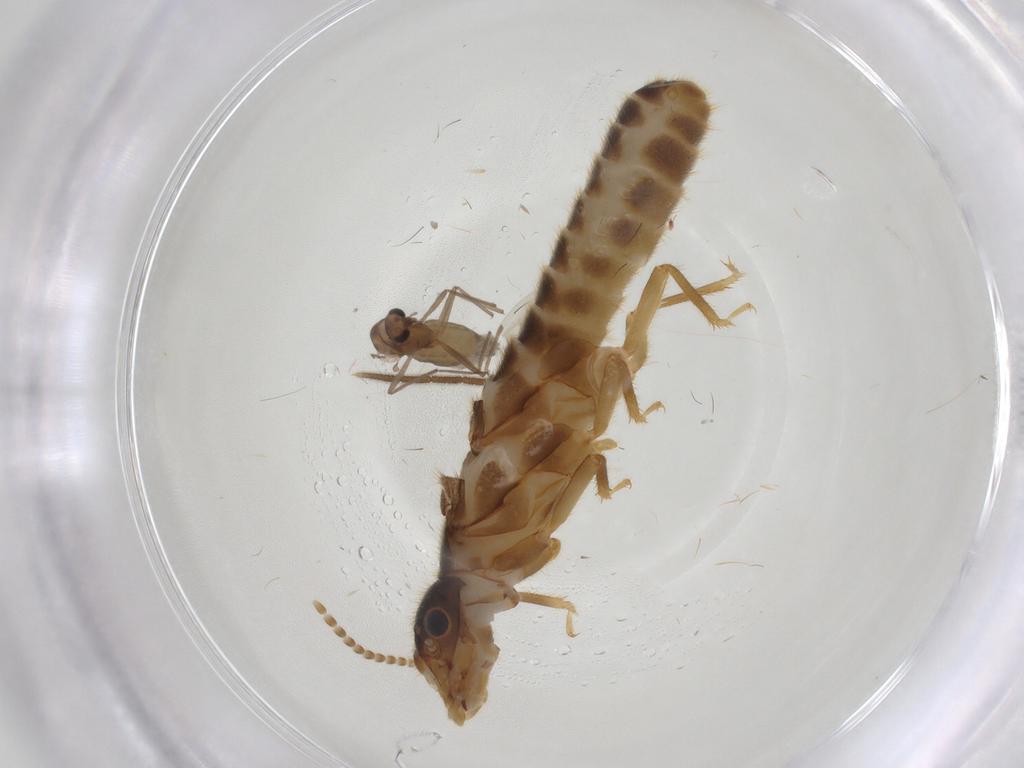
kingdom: Animalia
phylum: Arthropoda
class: Insecta
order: Diptera
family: Chironomidae
